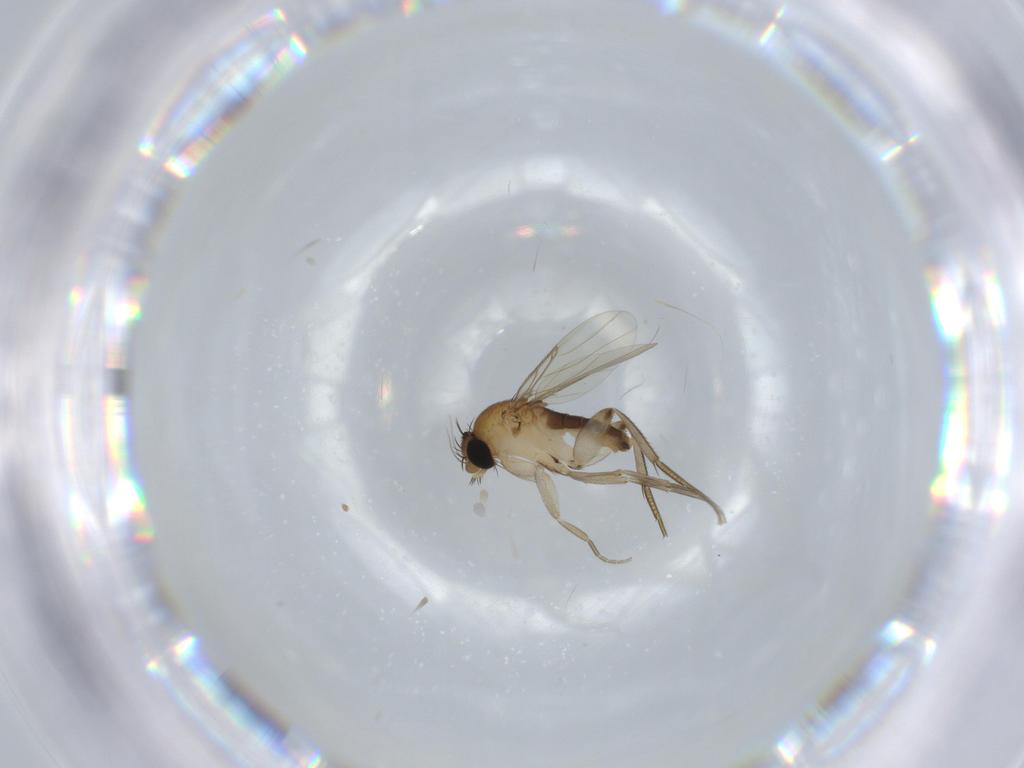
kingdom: Animalia
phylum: Arthropoda
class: Insecta
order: Diptera
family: Phoridae
